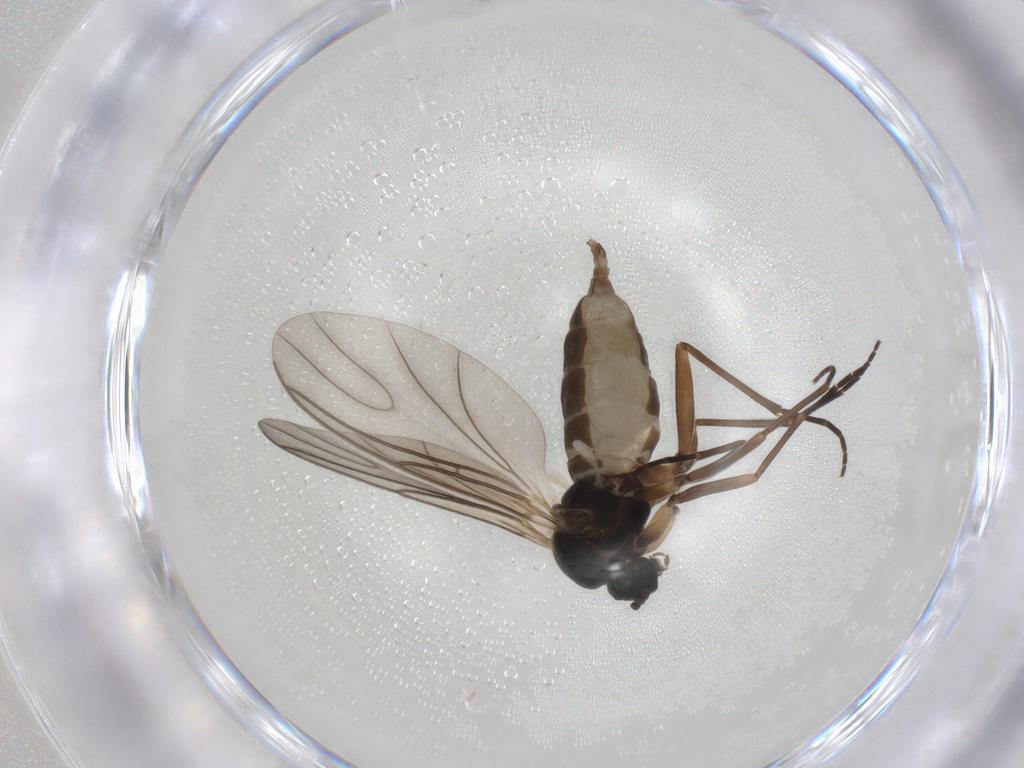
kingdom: Animalia
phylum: Arthropoda
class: Insecta
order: Diptera
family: Sciaridae
